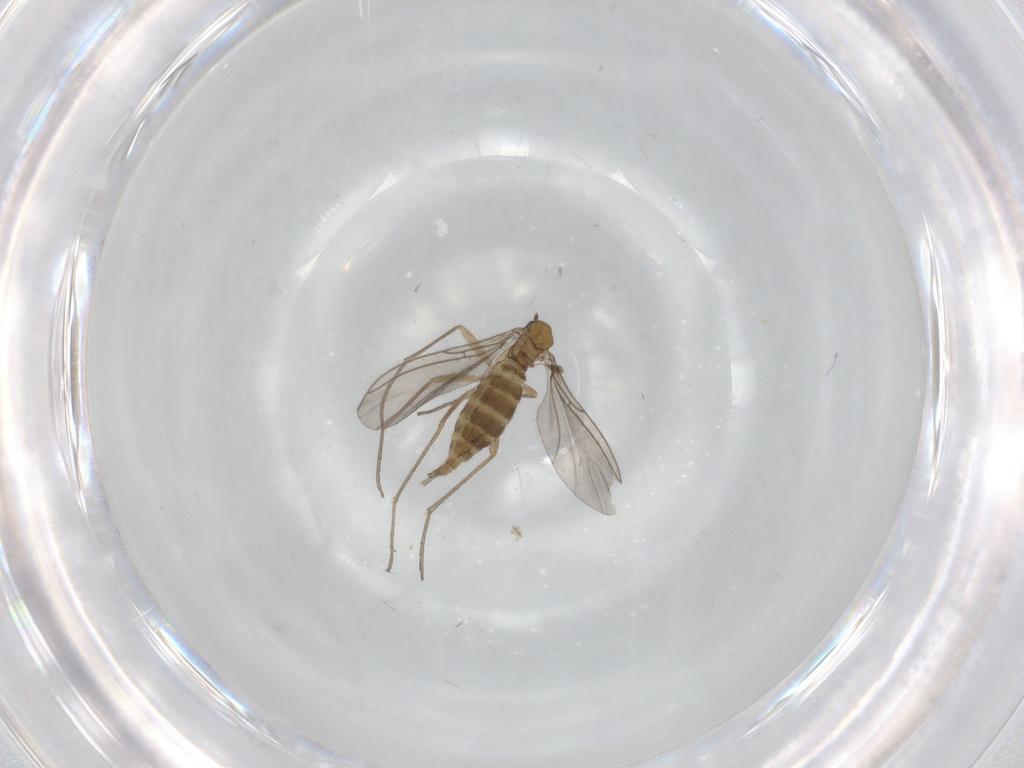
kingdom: Animalia
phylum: Arthropoda
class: Insecta
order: Diptera
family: Sciaridae
